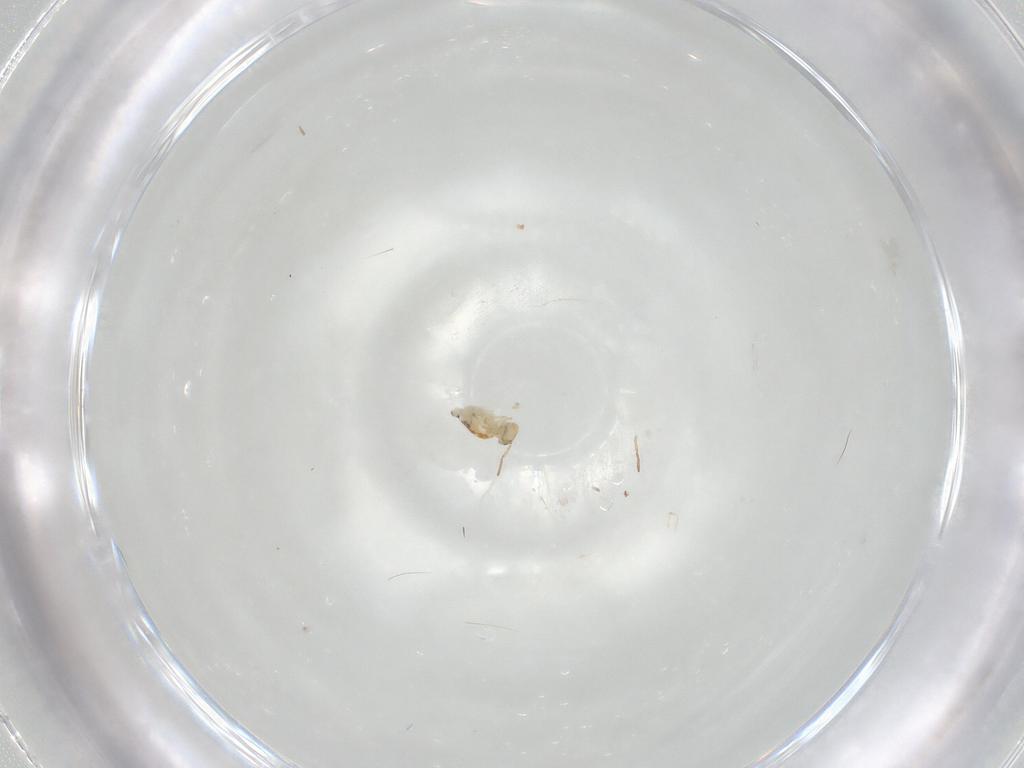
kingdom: Animalia
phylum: Arthropoda
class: Collembola
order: Symphypleona
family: Bourletiellidae
